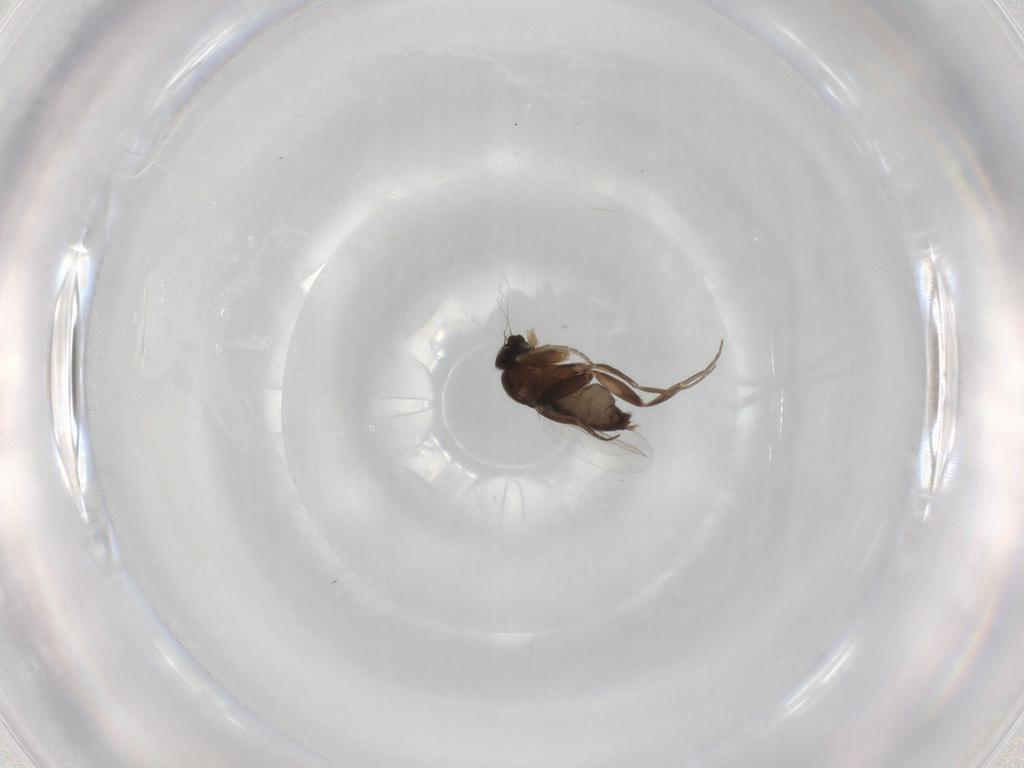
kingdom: Animalia
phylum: Arthropoda
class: Insecta
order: Diptera
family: Phoridae
